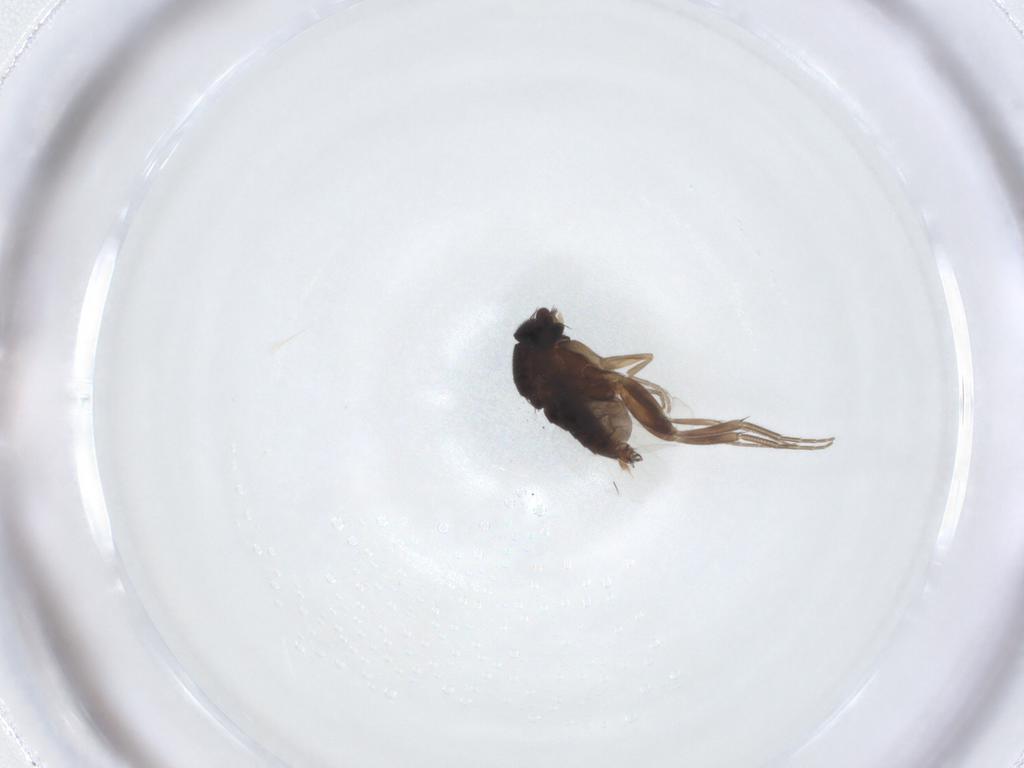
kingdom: Animalia
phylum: Arthropoda
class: Insecta
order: Diptera
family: Phoridae
